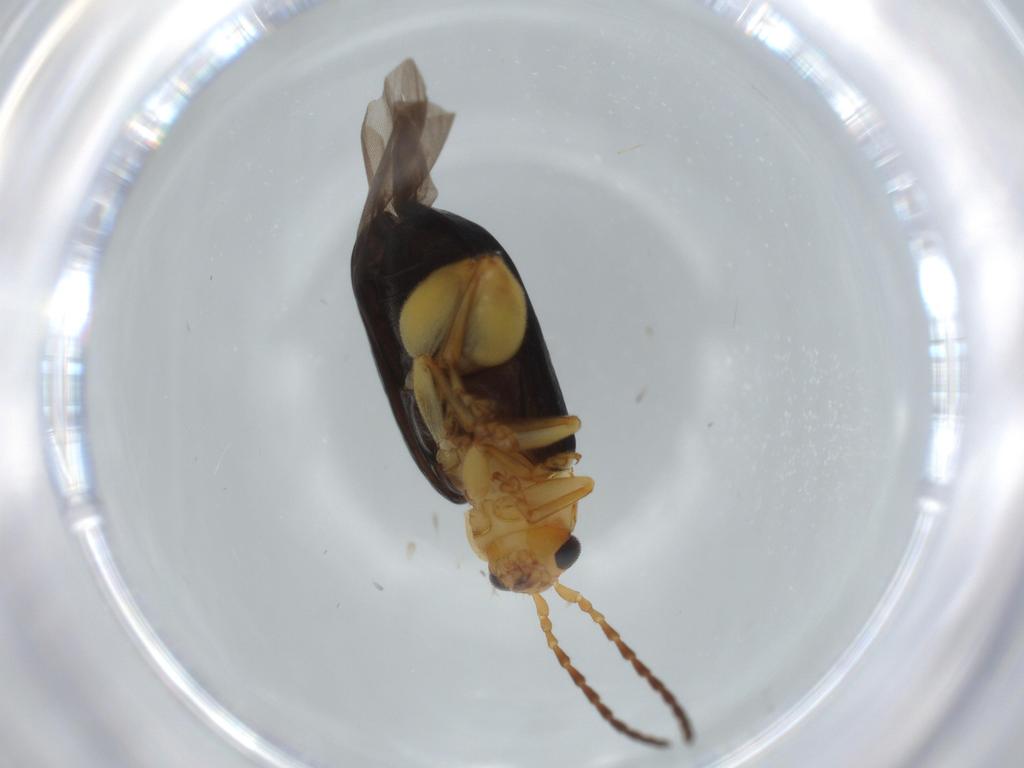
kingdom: Animalia
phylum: Arthropoda
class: Insecta
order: Coleoptera
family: Chrysomelidae
